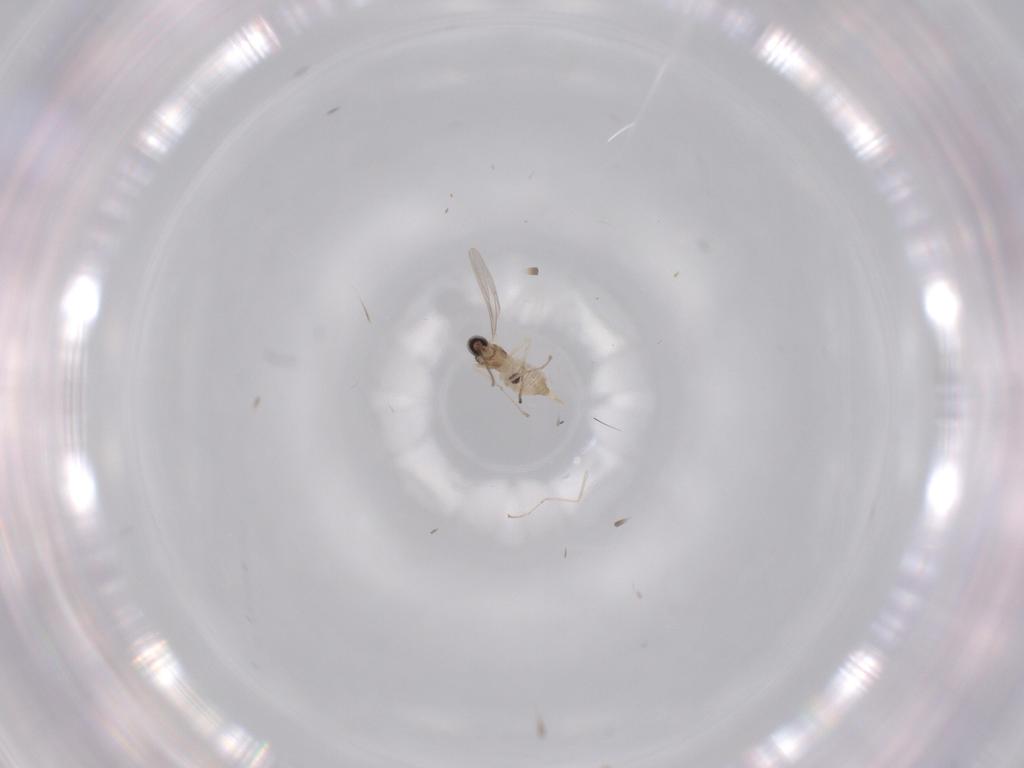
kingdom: Animalia
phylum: Arthropoda
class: Insecta
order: Diptera
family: Cecidomyiidae
